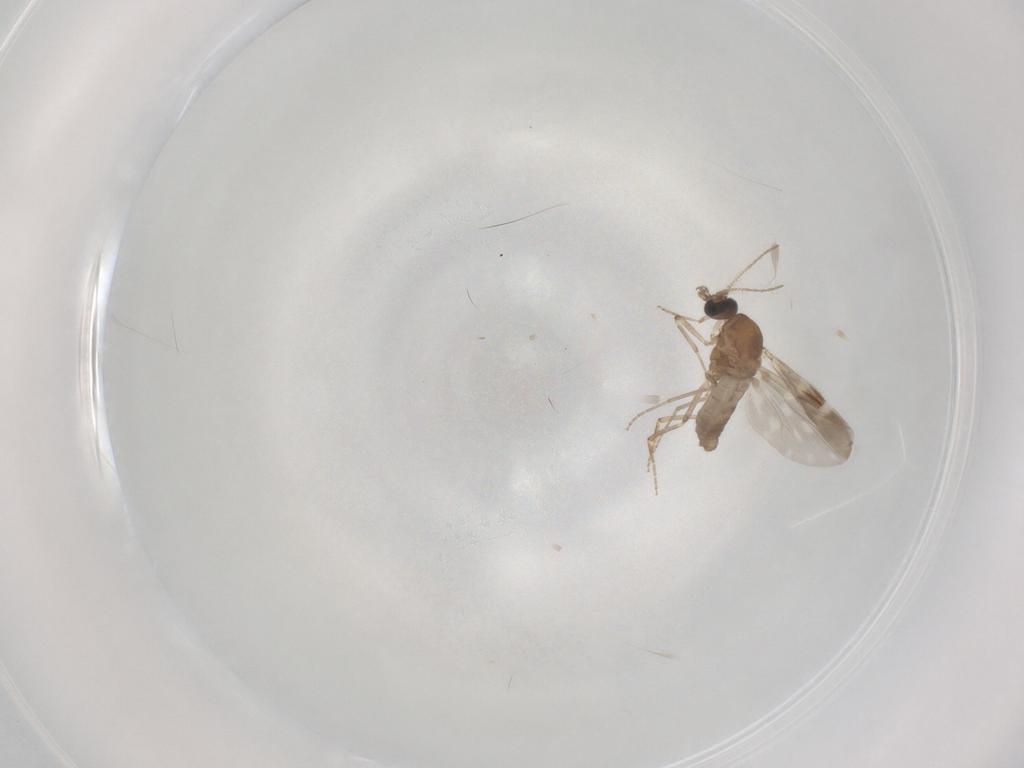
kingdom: Animalia
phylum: Arthropoda
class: Insecta
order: Diptera
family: Ceratopogonidae
